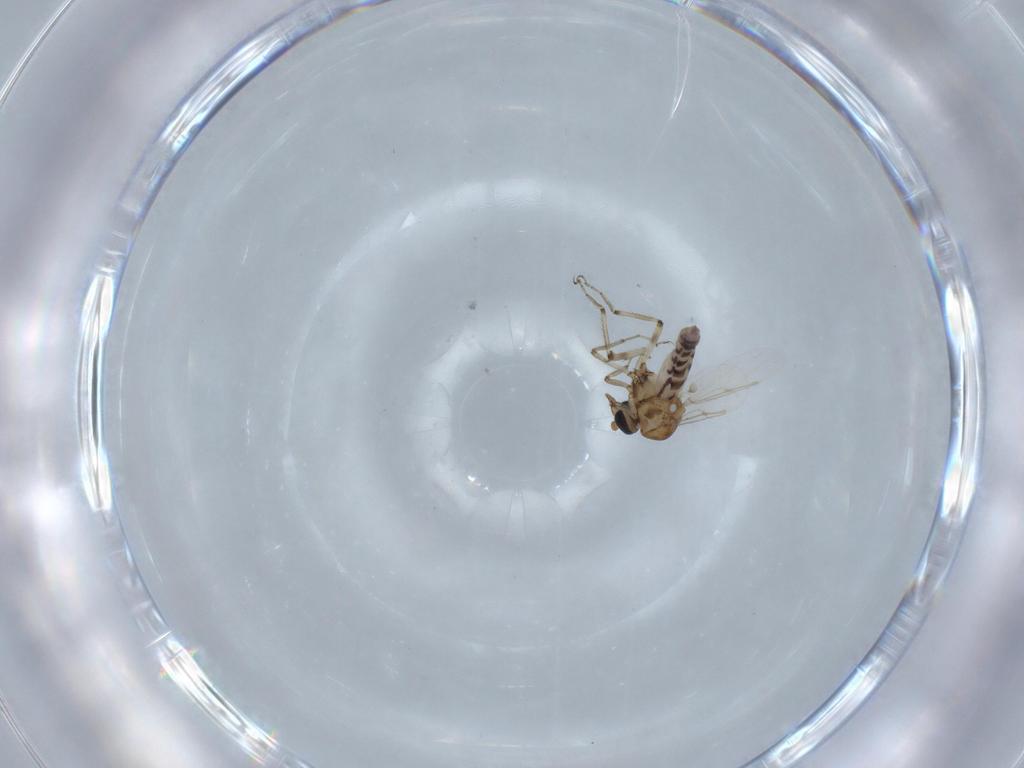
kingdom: Animalia
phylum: Arthropoda
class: Insecta
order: Diptera
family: Ceratopogonidae
